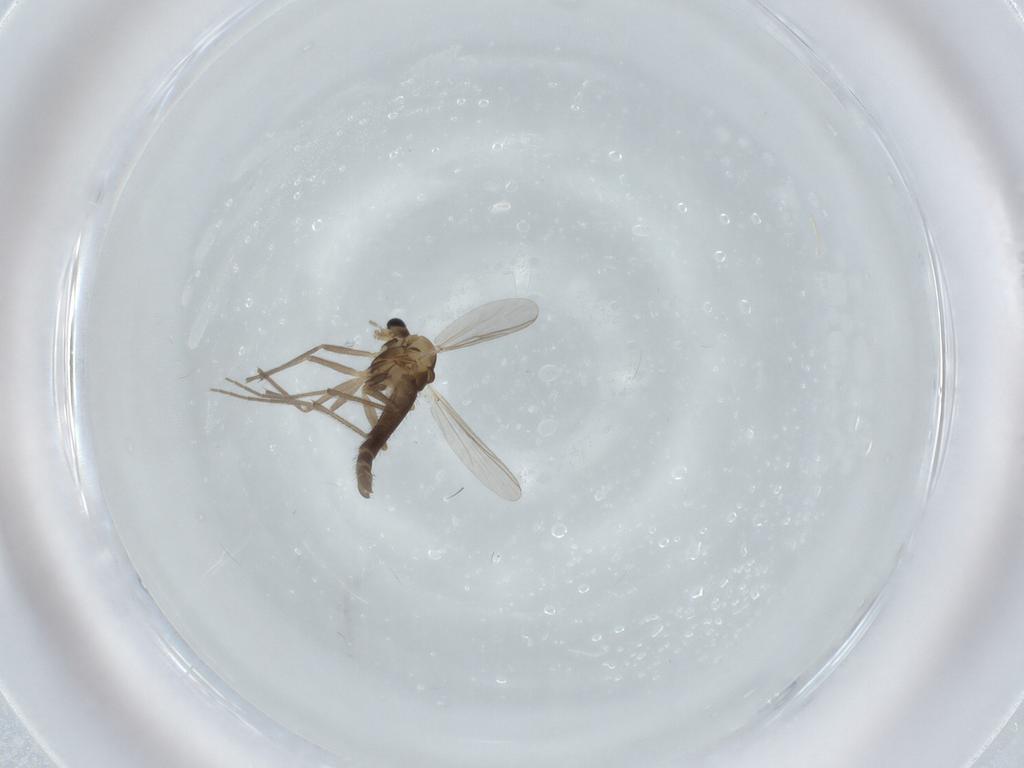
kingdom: Animalia
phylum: Arthropoda
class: Insecta
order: Diptera
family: Chironomidae
